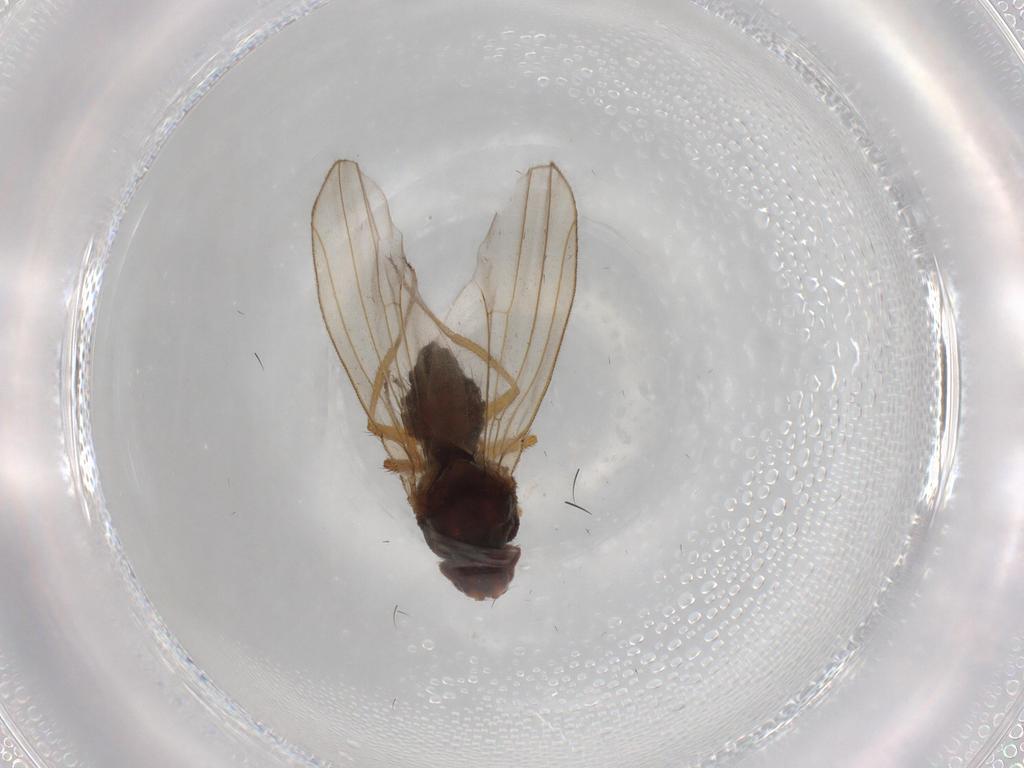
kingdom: Animalia
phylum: Arthropoda
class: Insecta
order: Diptera
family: Drosophilidae
